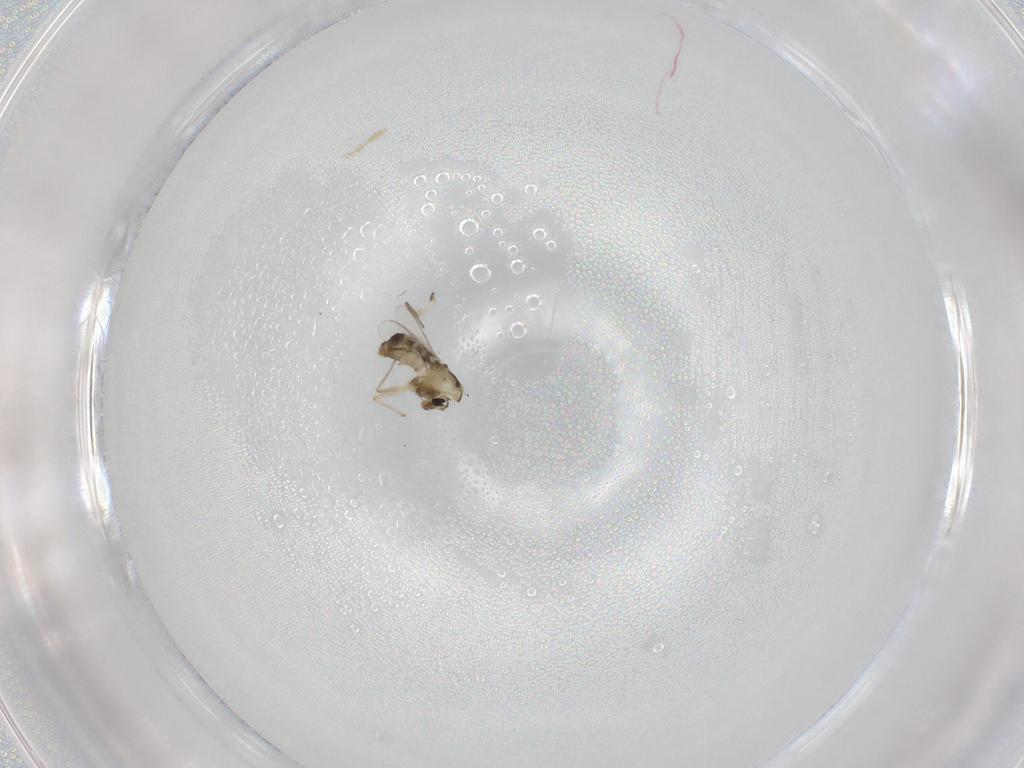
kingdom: Animalia
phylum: Arthropoda
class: Insecta
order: Diptera
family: Chironomidae
